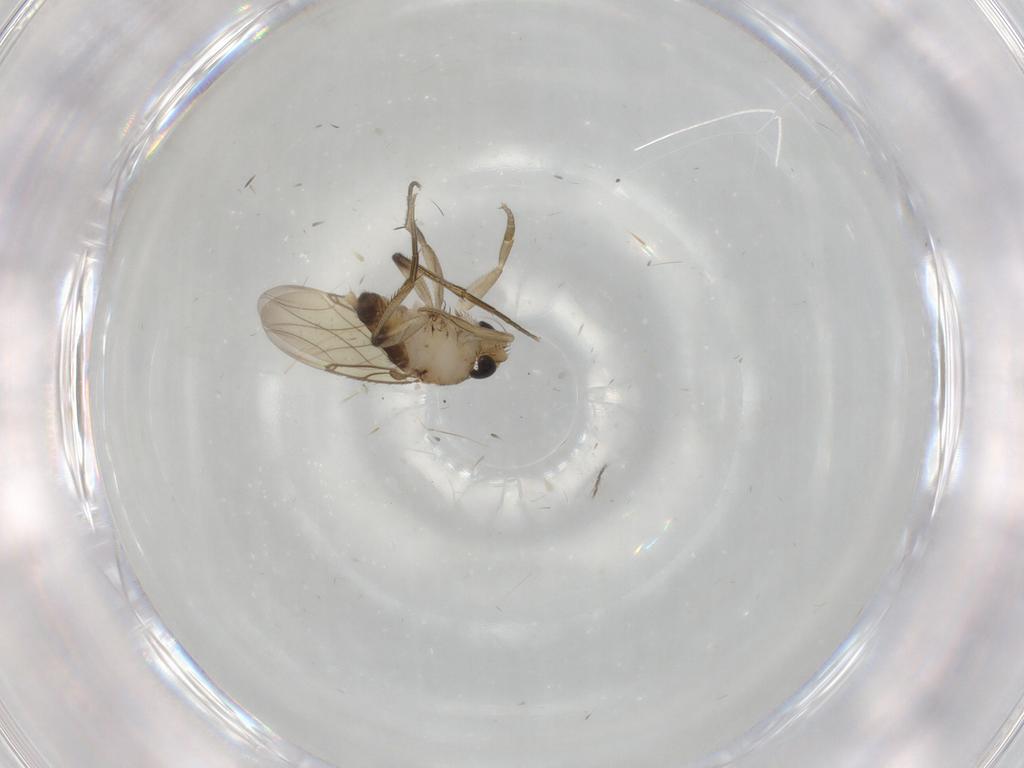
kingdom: Animalia
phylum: Arthropoda
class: Insecta
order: Diptera
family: Phoridae
